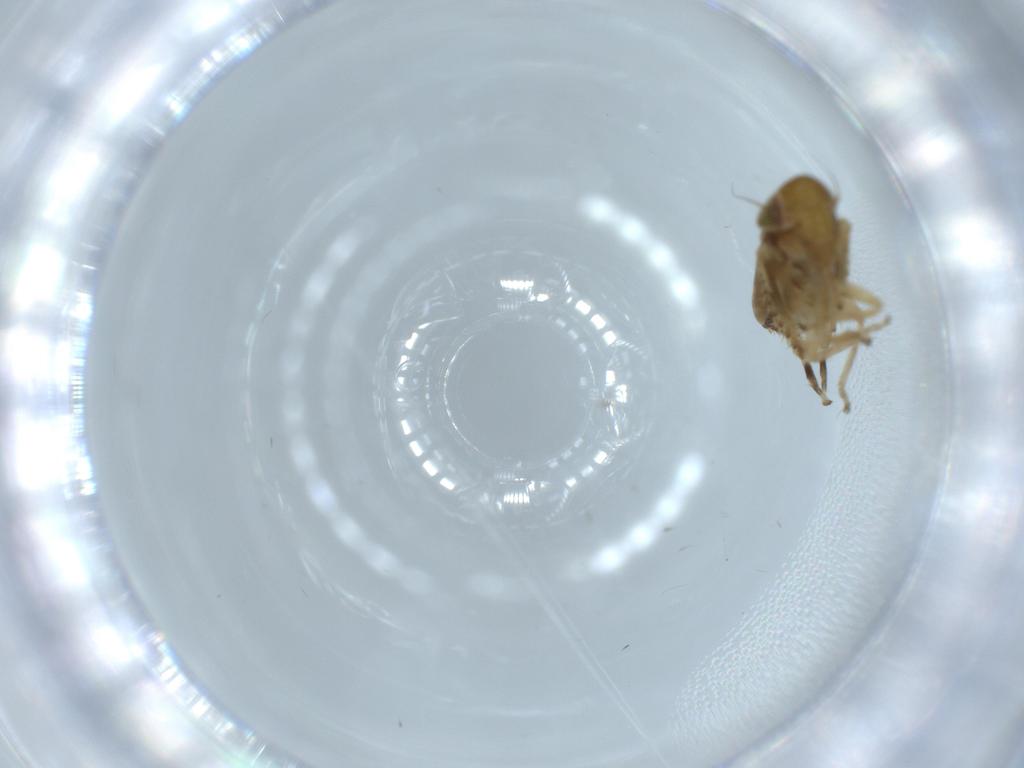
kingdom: Animalia
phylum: Arthropoda
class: Insecta
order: Hemiptera
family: Cicadellidae
